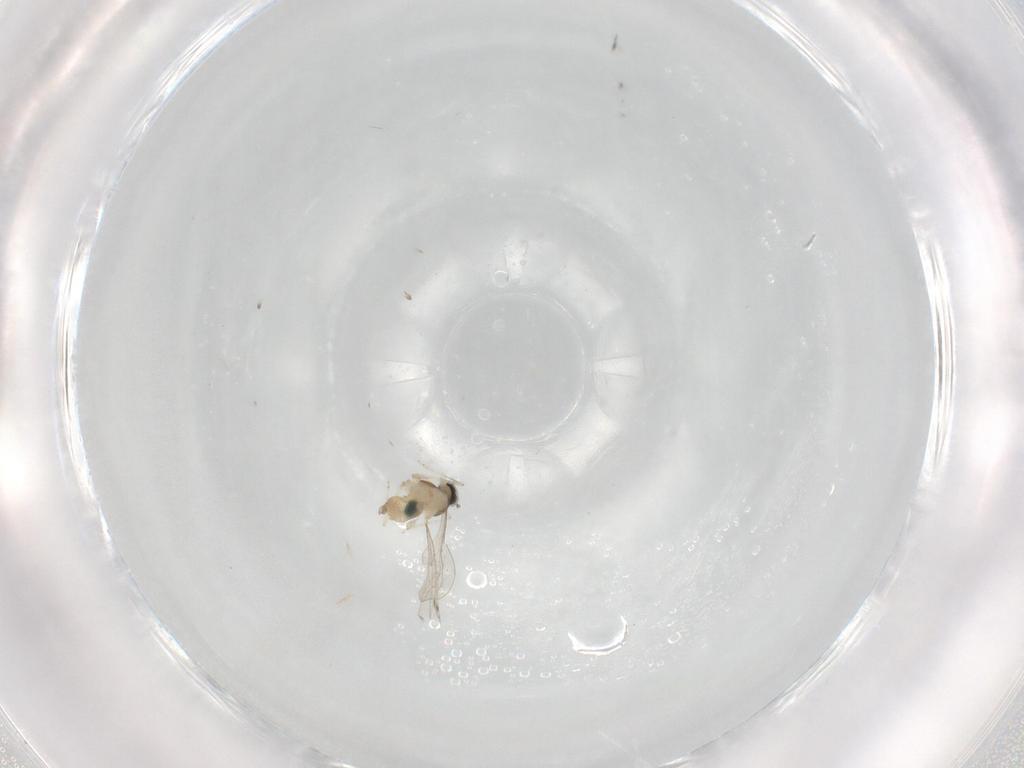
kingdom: Animalia
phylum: Arthropoda
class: Insecta
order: Diptera
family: Chironomidae
